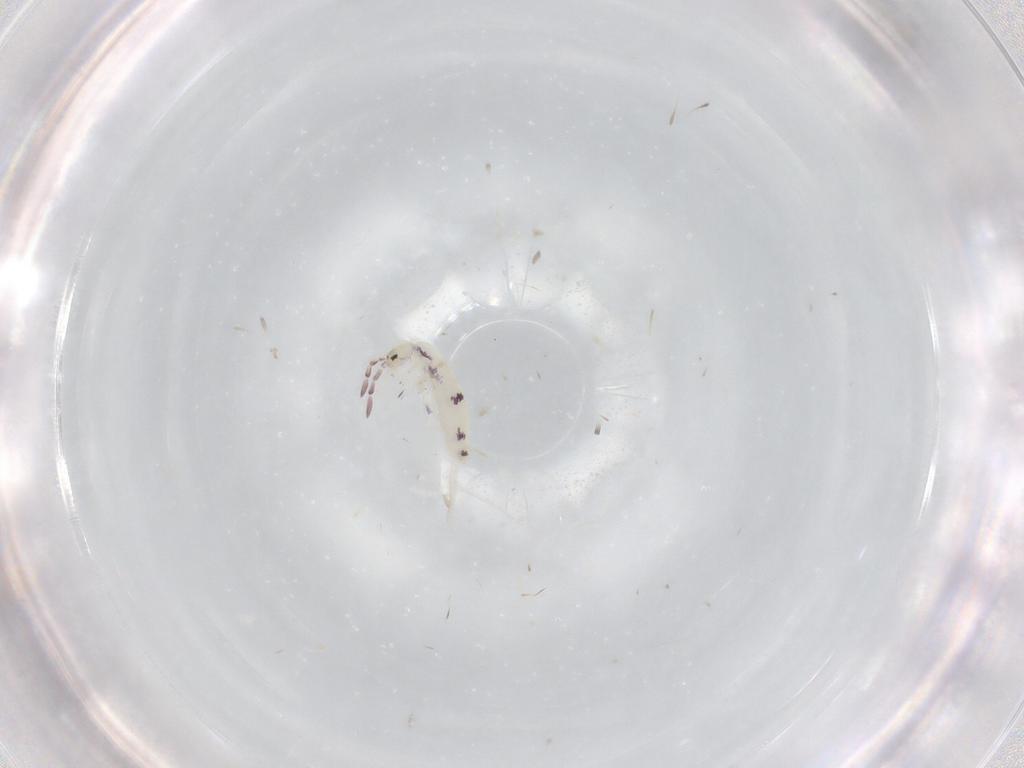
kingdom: Animalia
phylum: Arthropoda
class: Collembola
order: Entomobryomorpha
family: Entomobryidae
